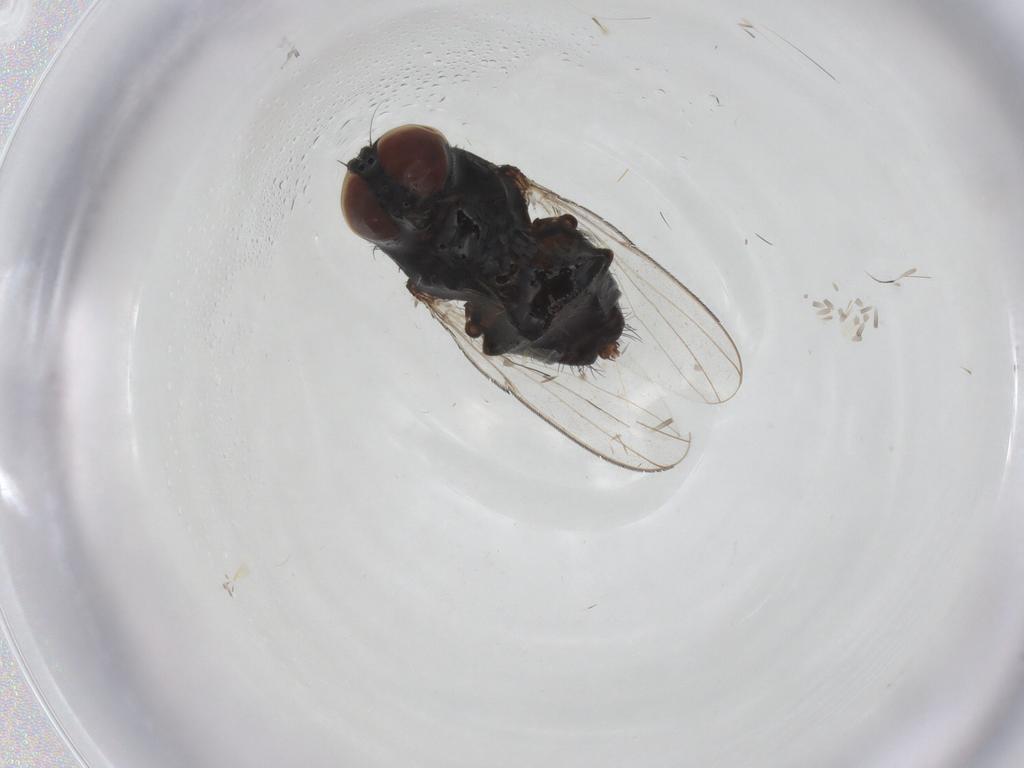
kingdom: Animalia
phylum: Arthropoda
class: Insecta
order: Diptera
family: Milichiidae
